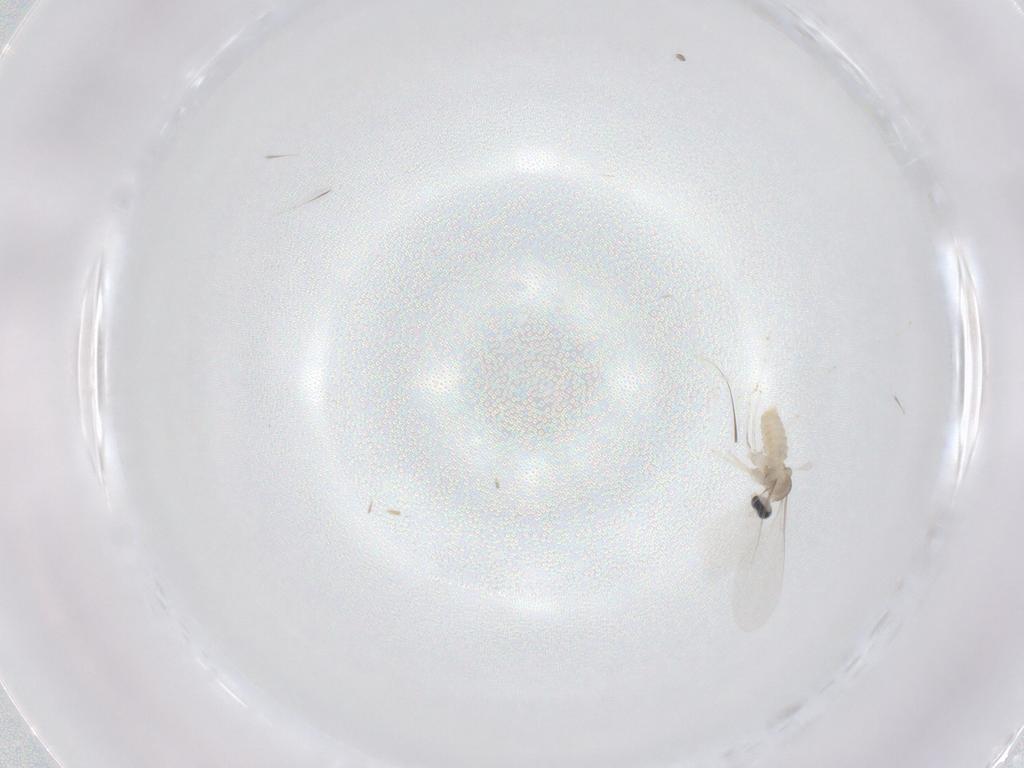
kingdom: Animalia
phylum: Arthropoda
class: Insecta
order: Diptera
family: Cecidomyiidae
